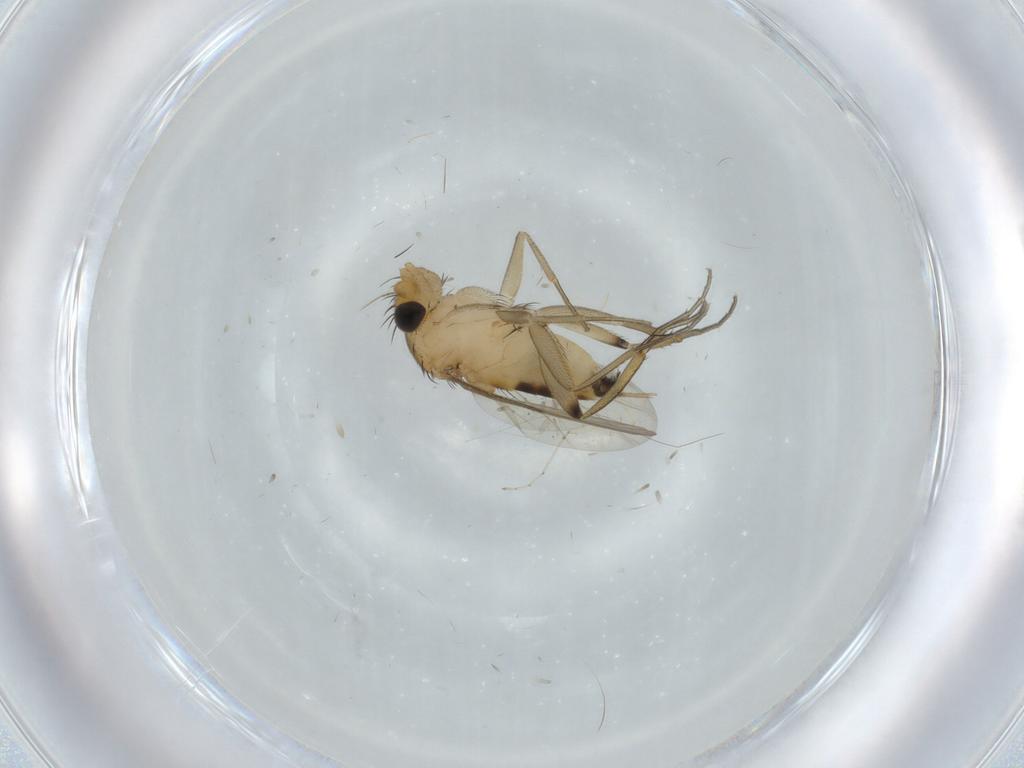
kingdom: Animalia
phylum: Arthropoda
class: Insecta
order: Diptera
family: Phoridae
